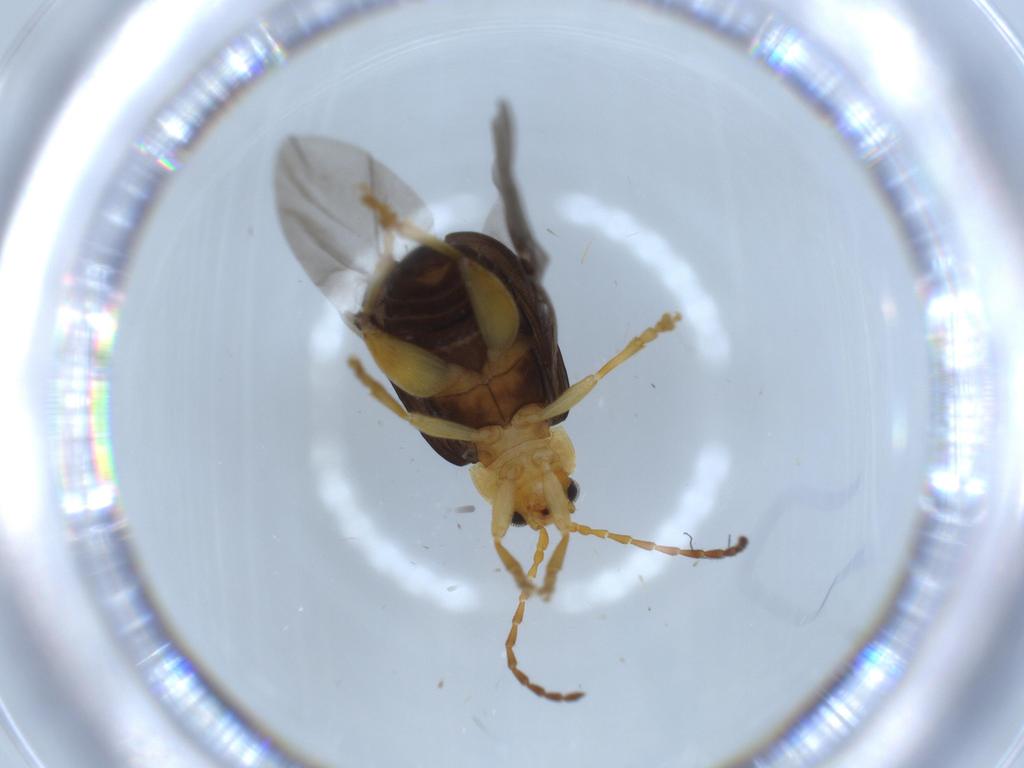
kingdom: Animalia
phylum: Arthropoda
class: Insecta
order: Coleoptera
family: Chrysomelidae
